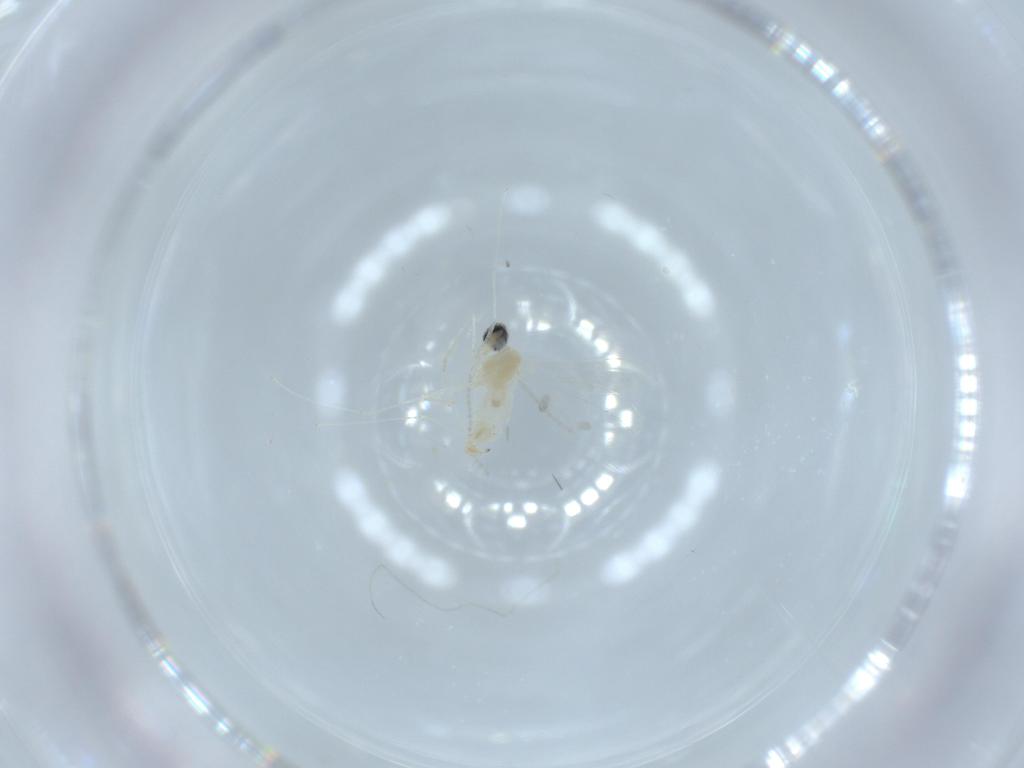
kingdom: Animalia
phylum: Arthropoda
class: Insecta
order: Diptera
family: Cecidomyiidae
